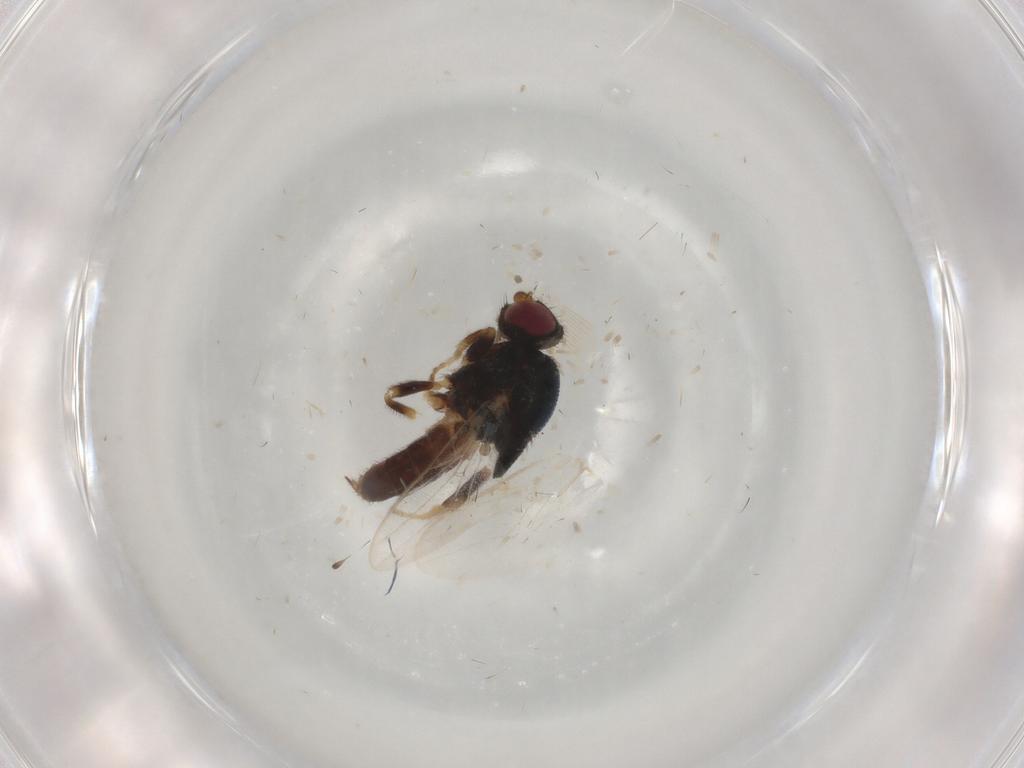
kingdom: Animalia
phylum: Arthropoda
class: Insecta
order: Diptera
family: Chloropidae
